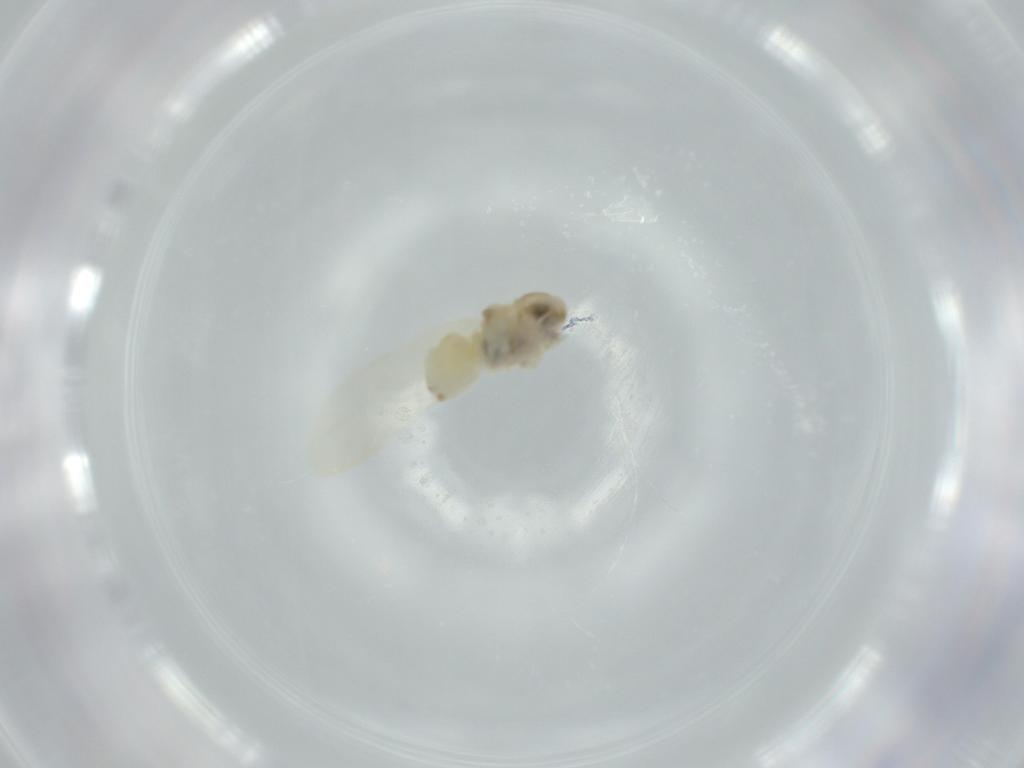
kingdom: Animalia
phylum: Arthropoda
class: Insecta
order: Psocodea
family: Caeciliusidae
